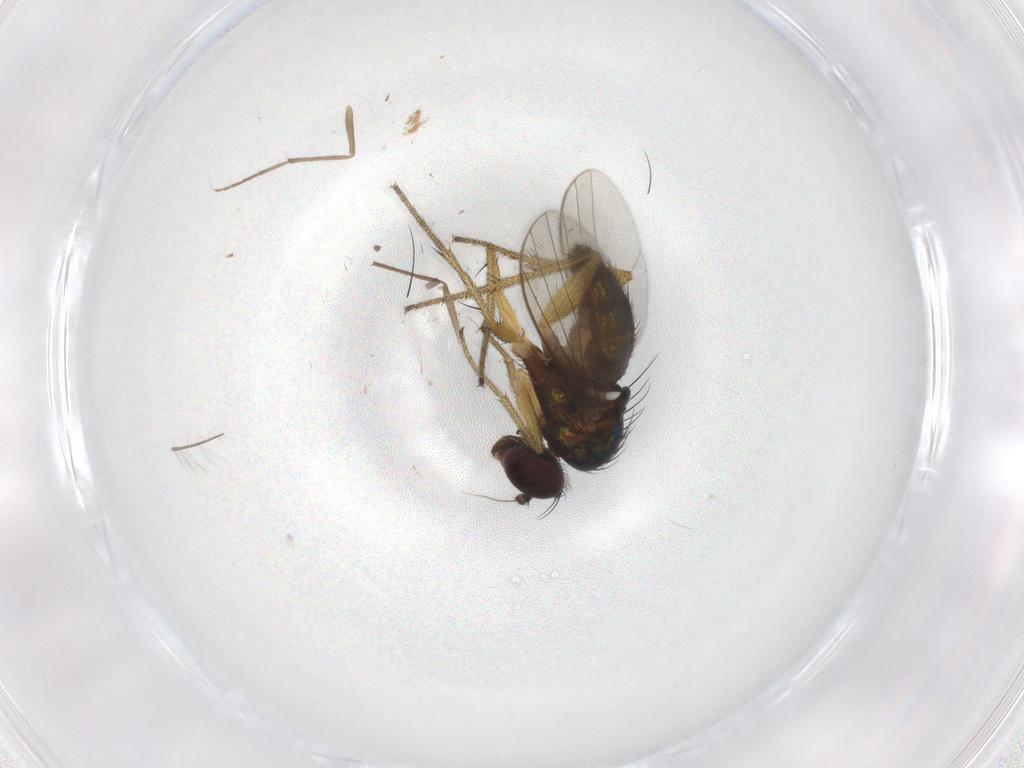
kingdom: Animalia
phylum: Arthropoda
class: Insecta
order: Diptera
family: Dolichopodidae
